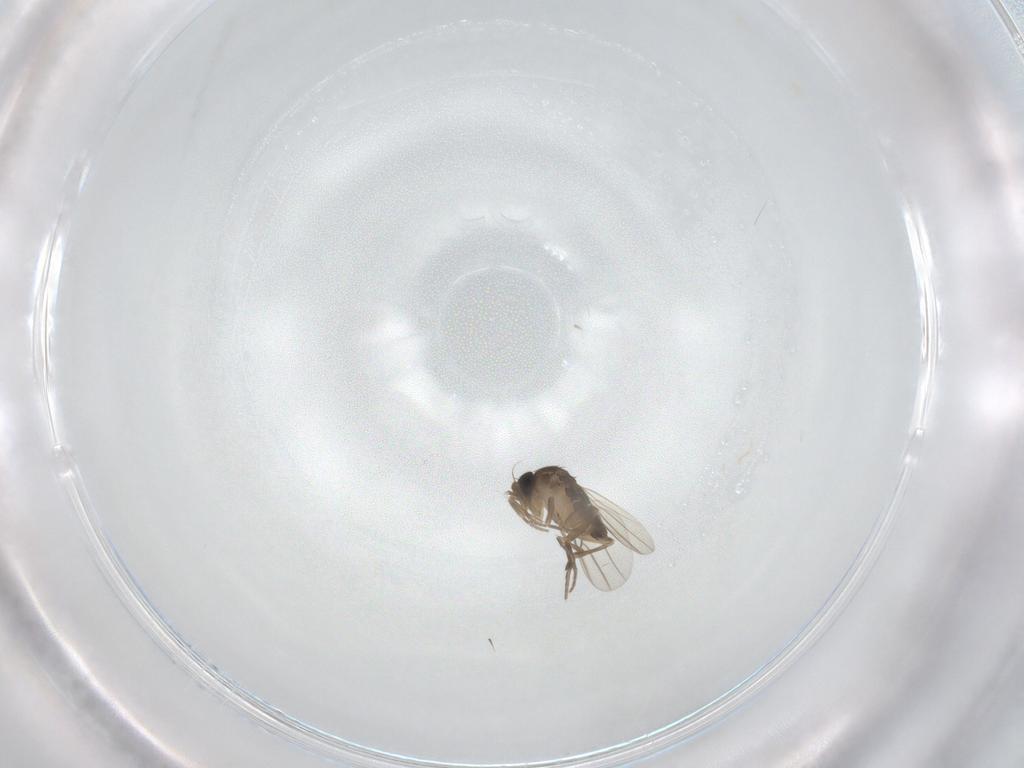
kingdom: Animalia
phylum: Arthropoda
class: Insecta
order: Diptera
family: Phoridae
